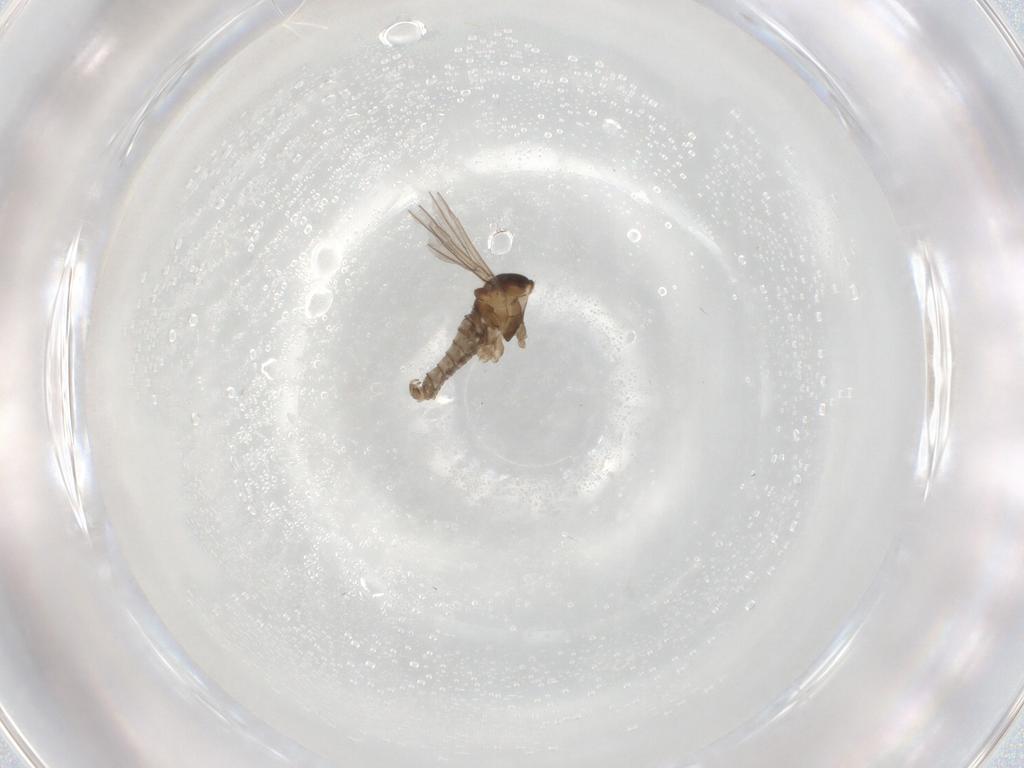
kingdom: Animalia
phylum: Arthropoda
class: Insecta
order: Diptera
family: Cecidomyiidae
